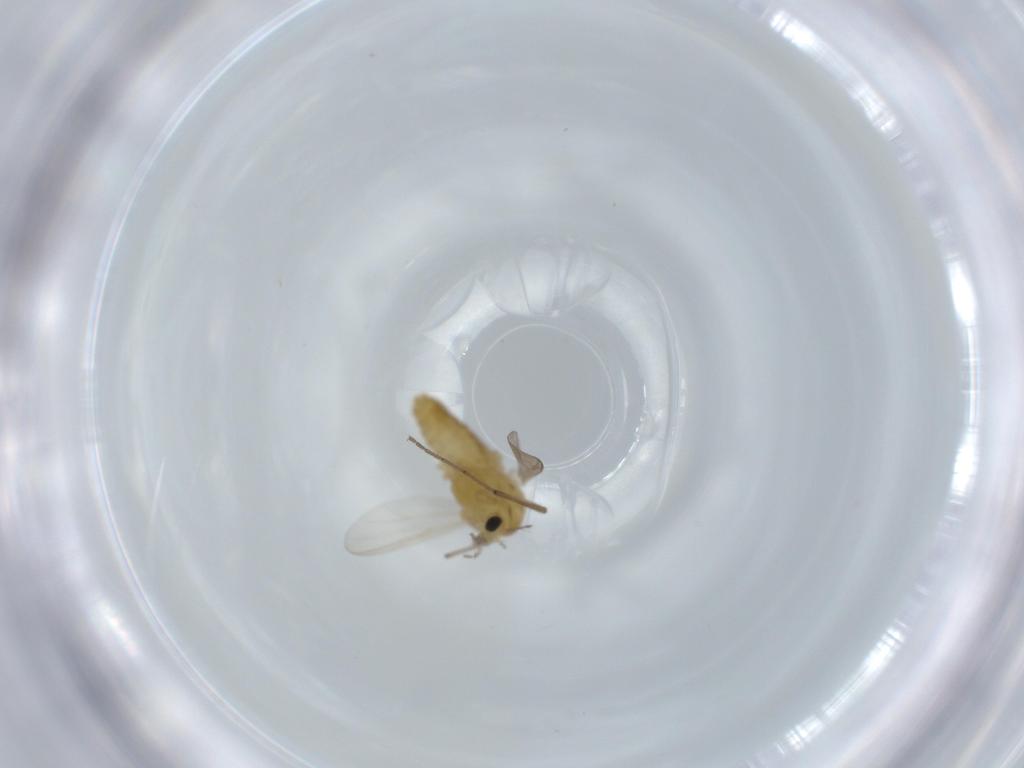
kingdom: Animalia
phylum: Arthropoda
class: Insecta
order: Diptera
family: Chironomidae
